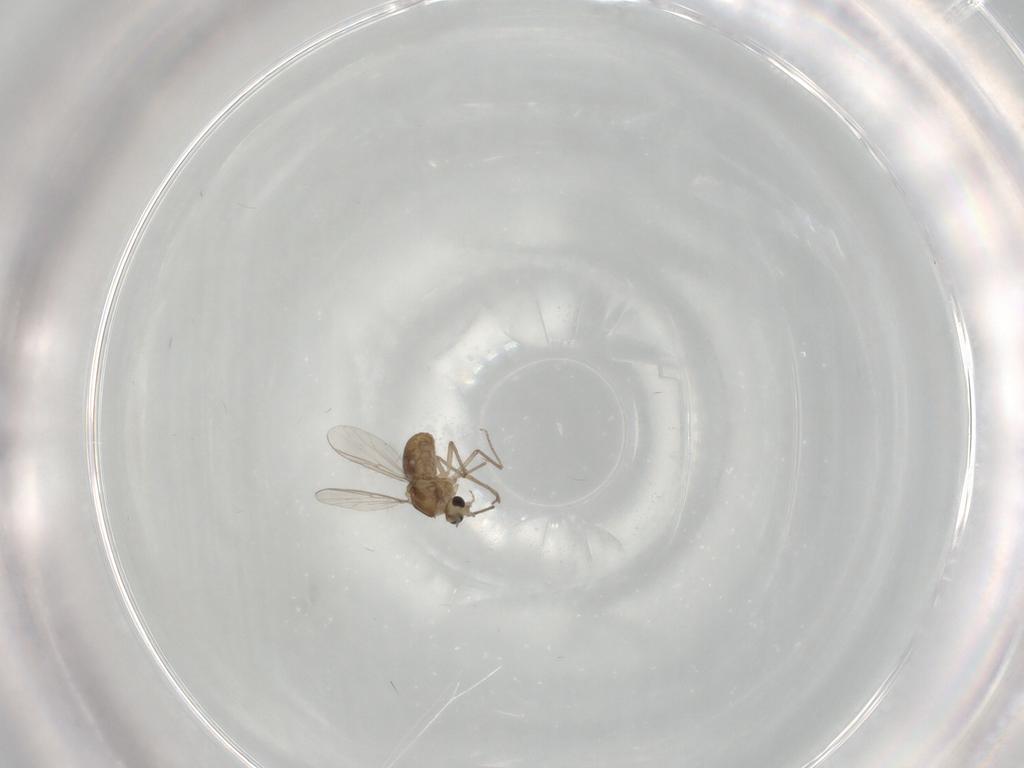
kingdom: Animalia
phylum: Arthropoda
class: Insecta
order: Diptera
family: Chironomidae
